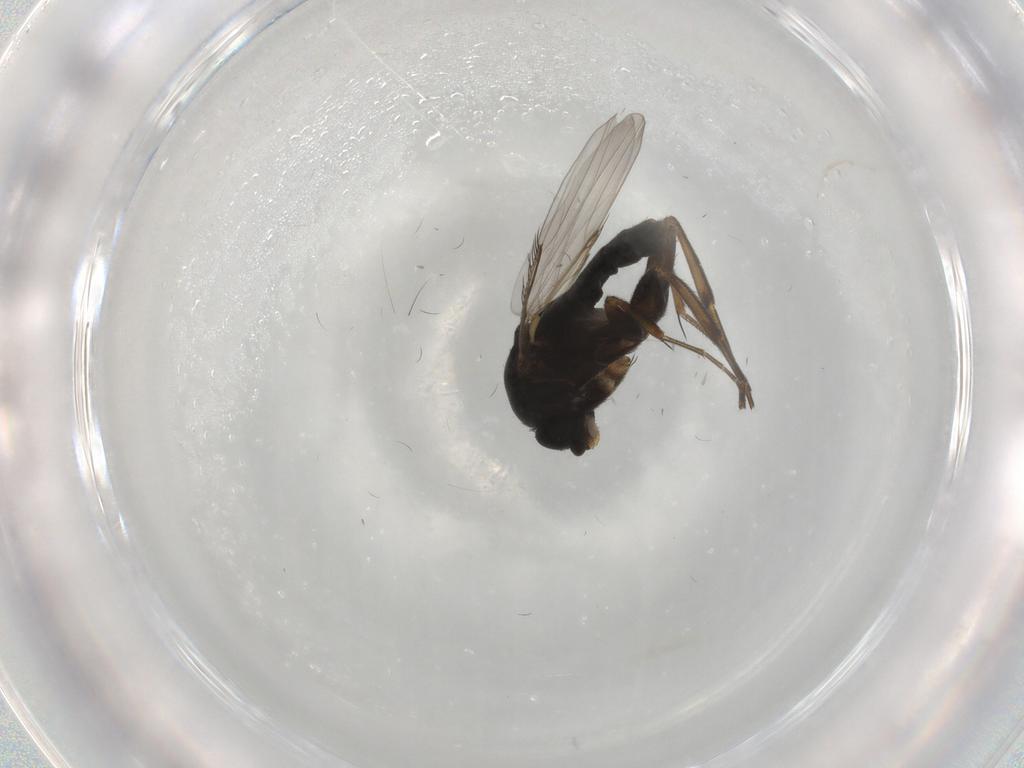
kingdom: Animalia
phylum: Arthropoda
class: Insecta
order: Diptera
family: Phoridae
